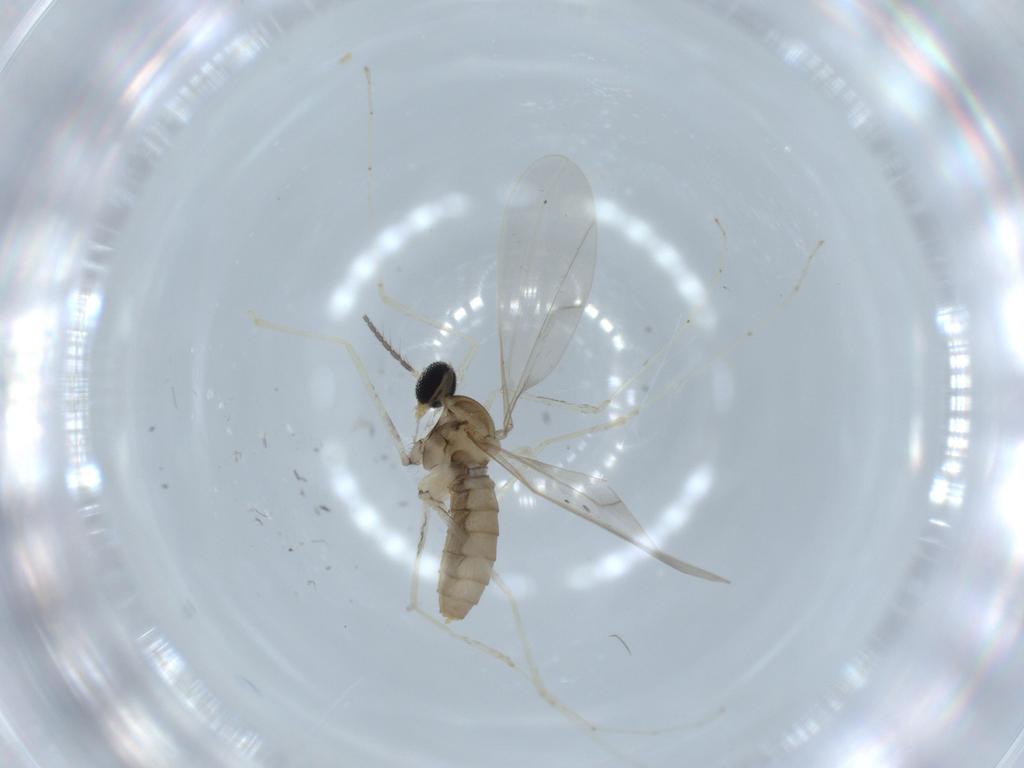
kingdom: Animalia
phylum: Arthropoda
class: Insecta
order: Diptera
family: Cecidomyiidae
